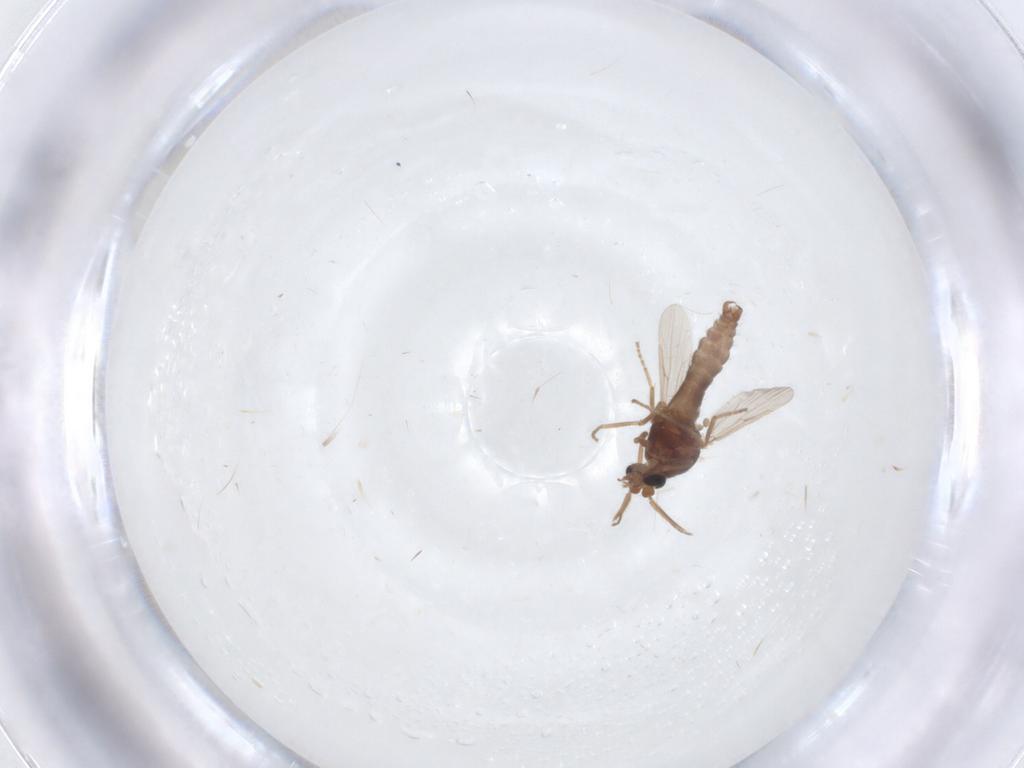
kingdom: Animalia
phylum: Arthropoda
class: Insecta
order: Diptera
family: Ceratopogonidae
